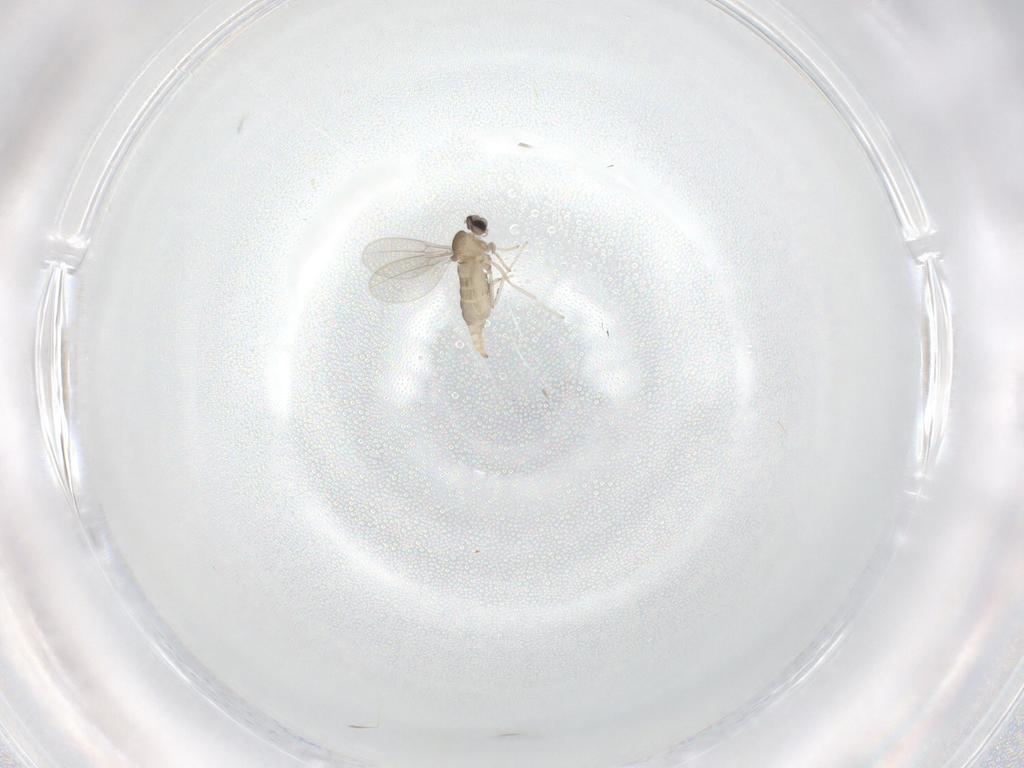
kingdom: Animalia
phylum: Arthropoda
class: Insecta
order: Diptera
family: Cecidomyiidae
